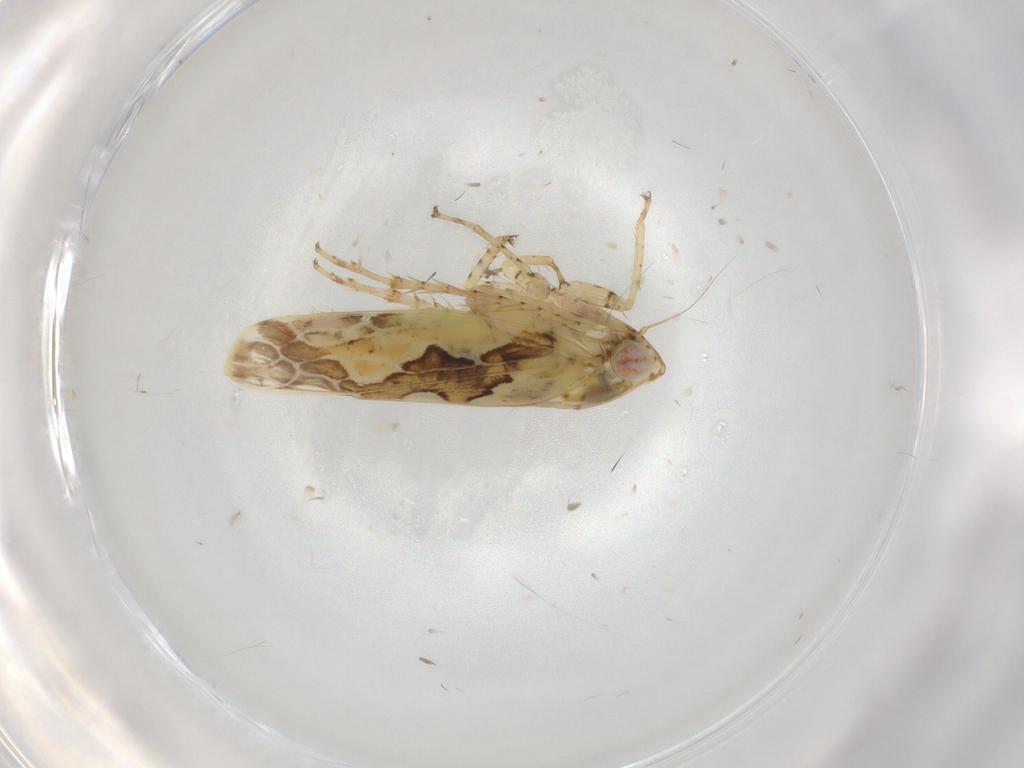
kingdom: Animalia
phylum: Arthropoda
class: Insecta
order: Hemiptera
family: Cicadellidae
